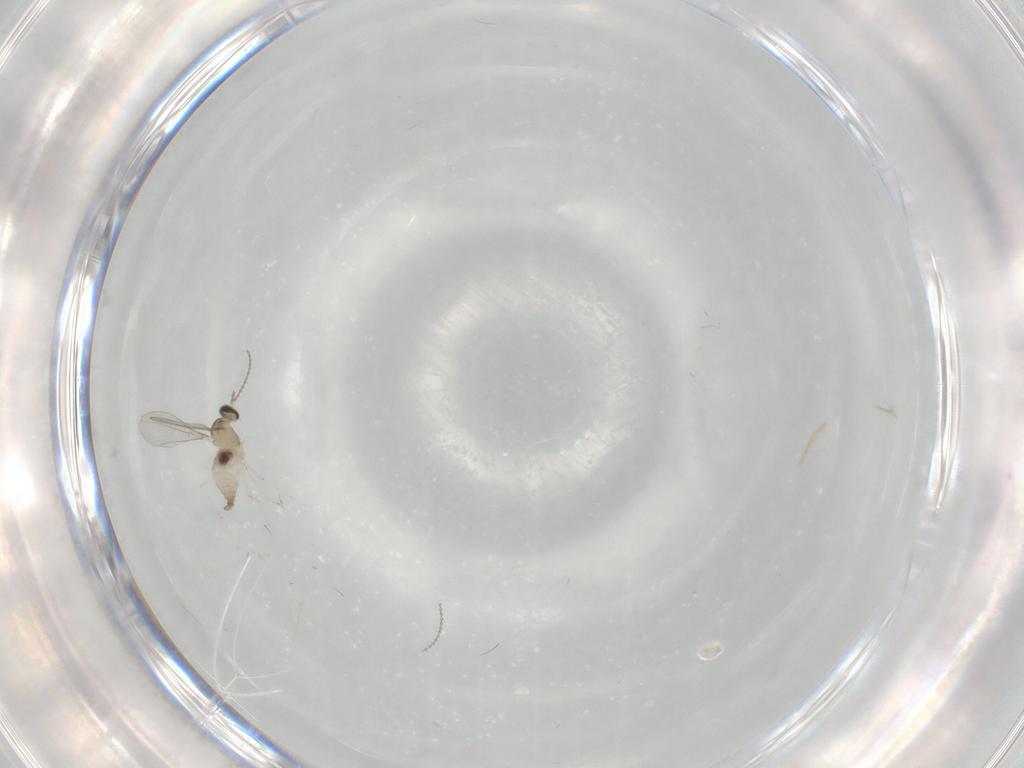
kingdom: Animalia
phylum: Arthropoda
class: Insecta
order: Diptera
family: Cecidomyiidae
